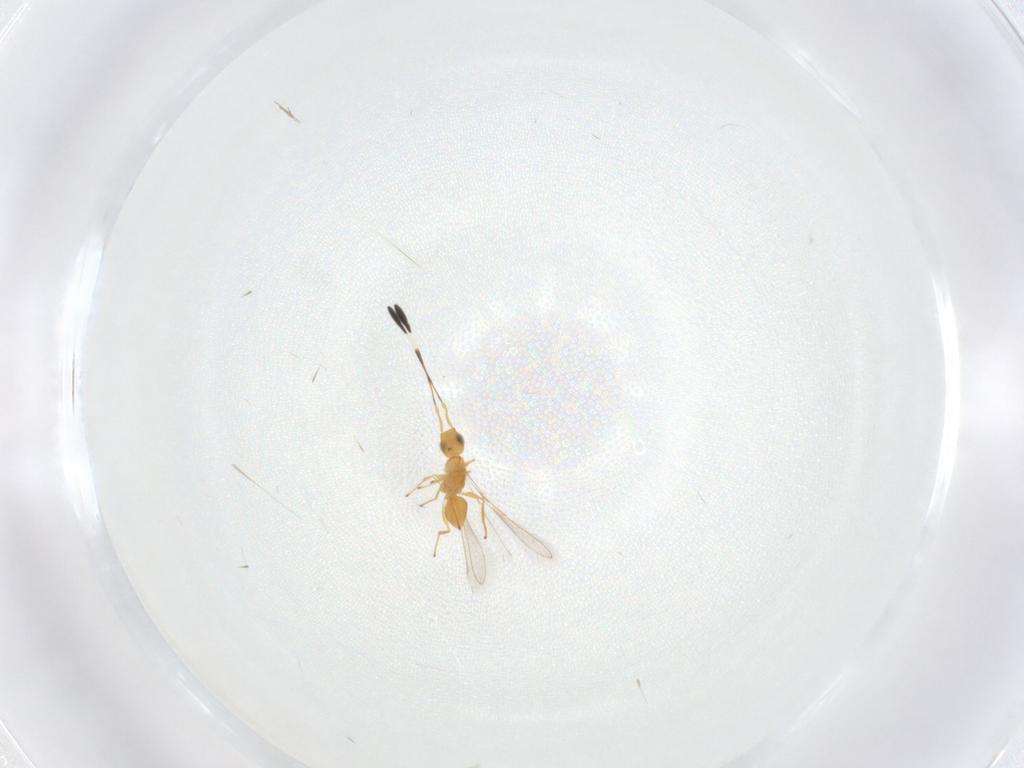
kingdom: Animalia
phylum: Arthropoda
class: Insecta
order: Hymenoptera
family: Mymaridae
